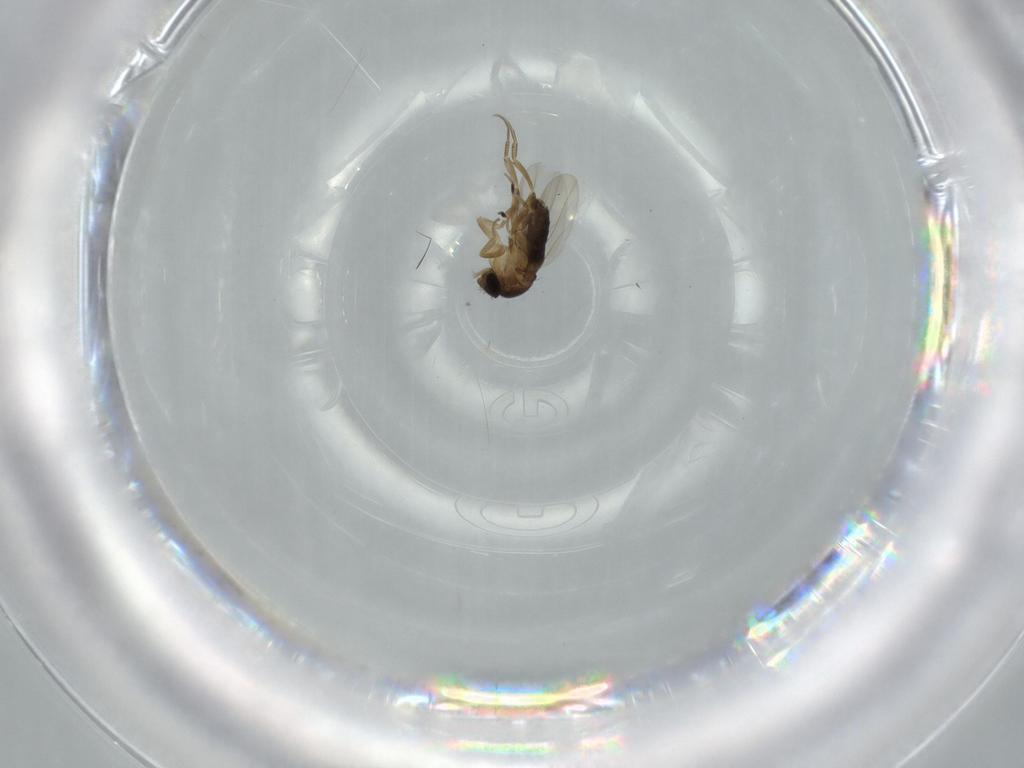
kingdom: Animalia
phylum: Arthropoda
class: Insecta
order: Diptera
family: Phoridae
